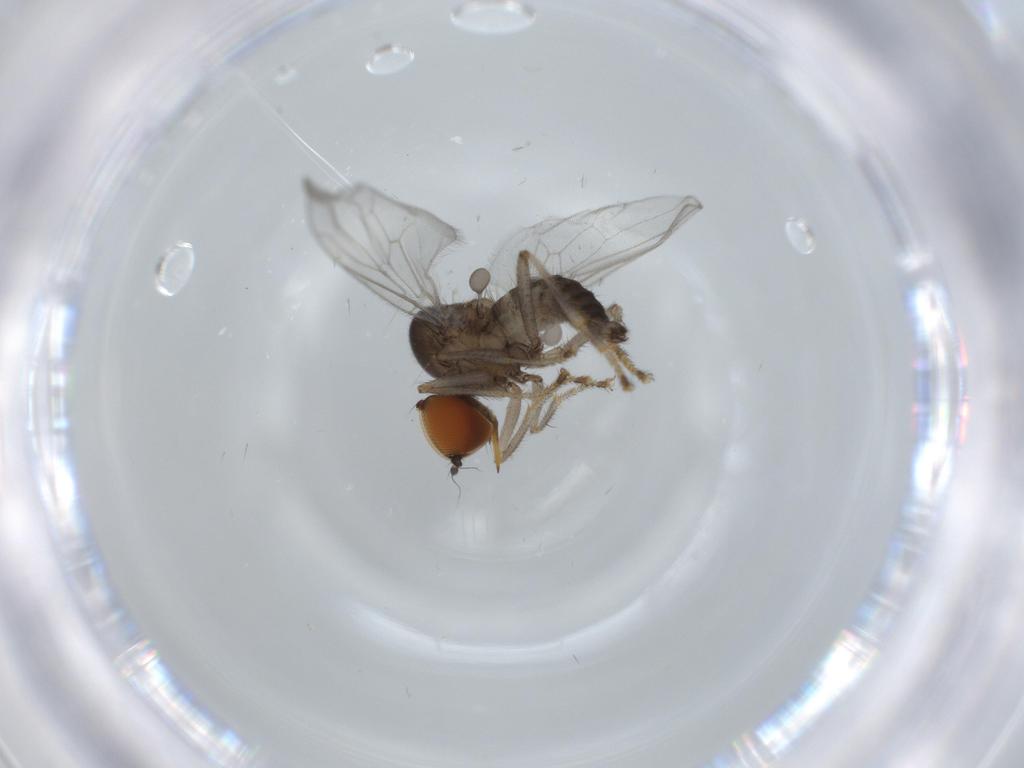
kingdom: Animalia
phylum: Arthropoda
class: Insecta
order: Diptera
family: Hybotidae
